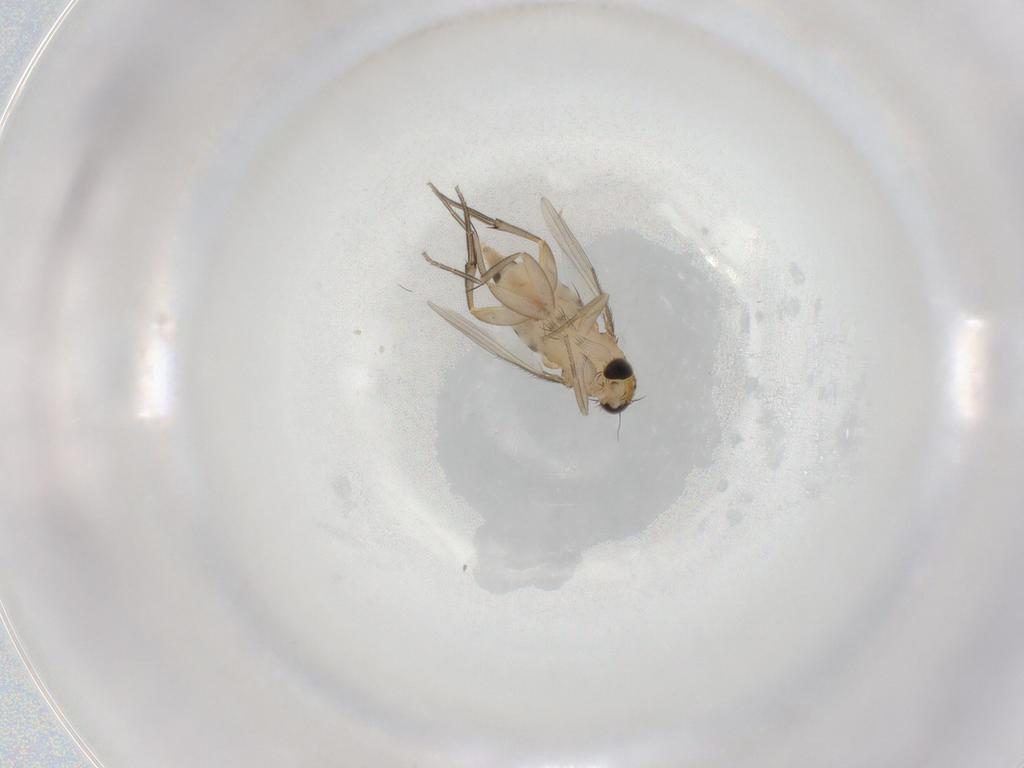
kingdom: Animalia
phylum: Arthropoda
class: Insecta
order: Diptera
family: Phoridae
